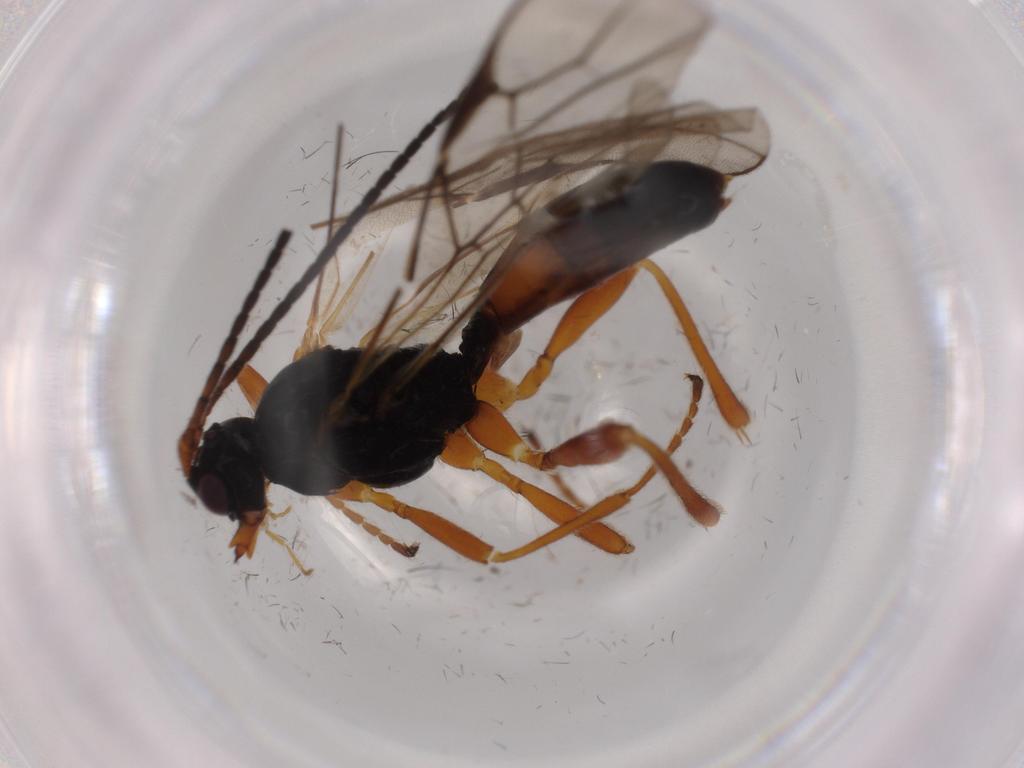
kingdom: Animalia
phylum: Arthropoda
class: Insecta
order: Hymenoptera
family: Braconidae
